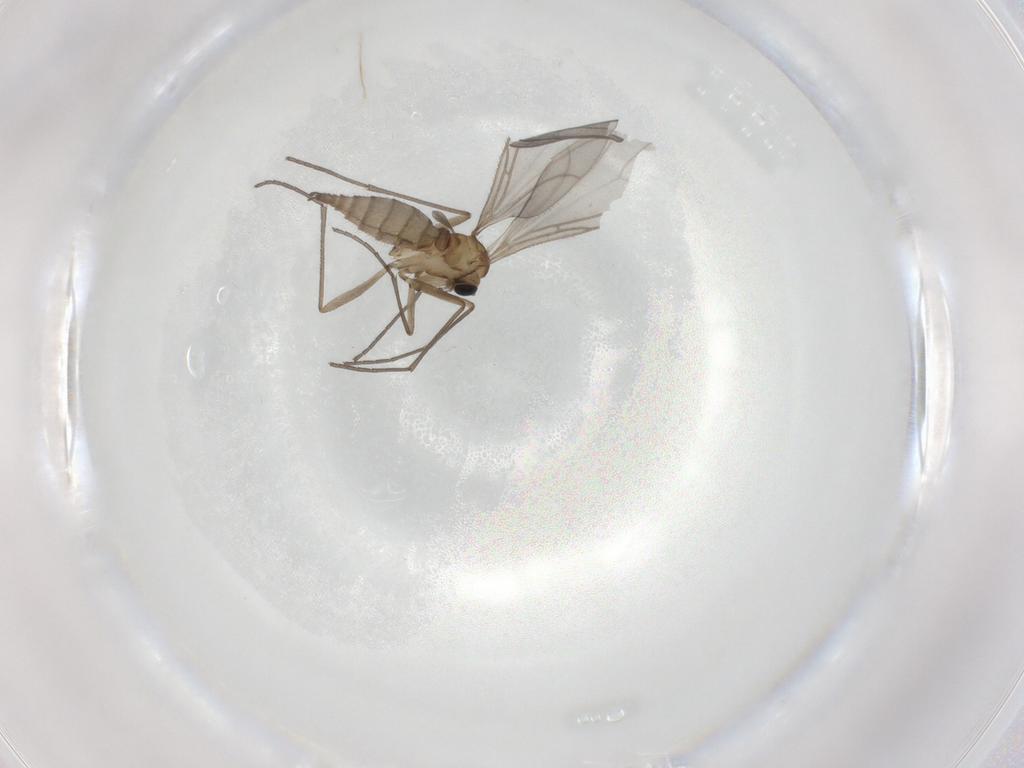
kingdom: Animalia
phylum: Arthropoda
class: Insecta
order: Diptera
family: Sciaridae
